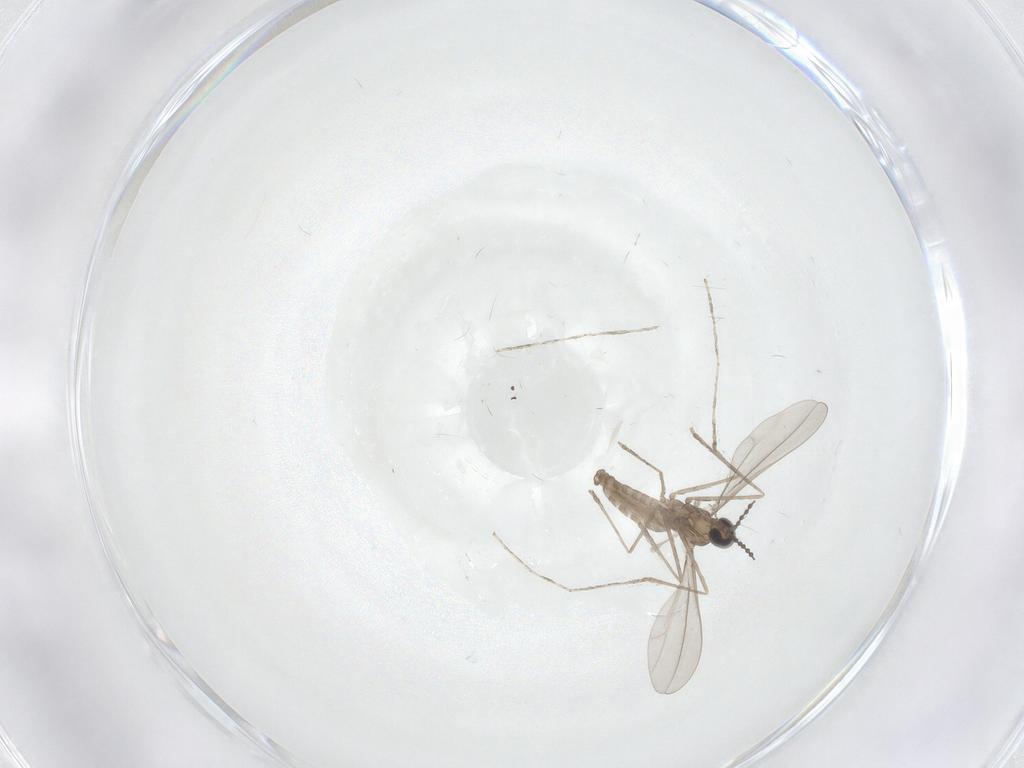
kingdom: Animalia
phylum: Arthropoda
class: Insecta
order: Diptera
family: Cecidomyiidae
